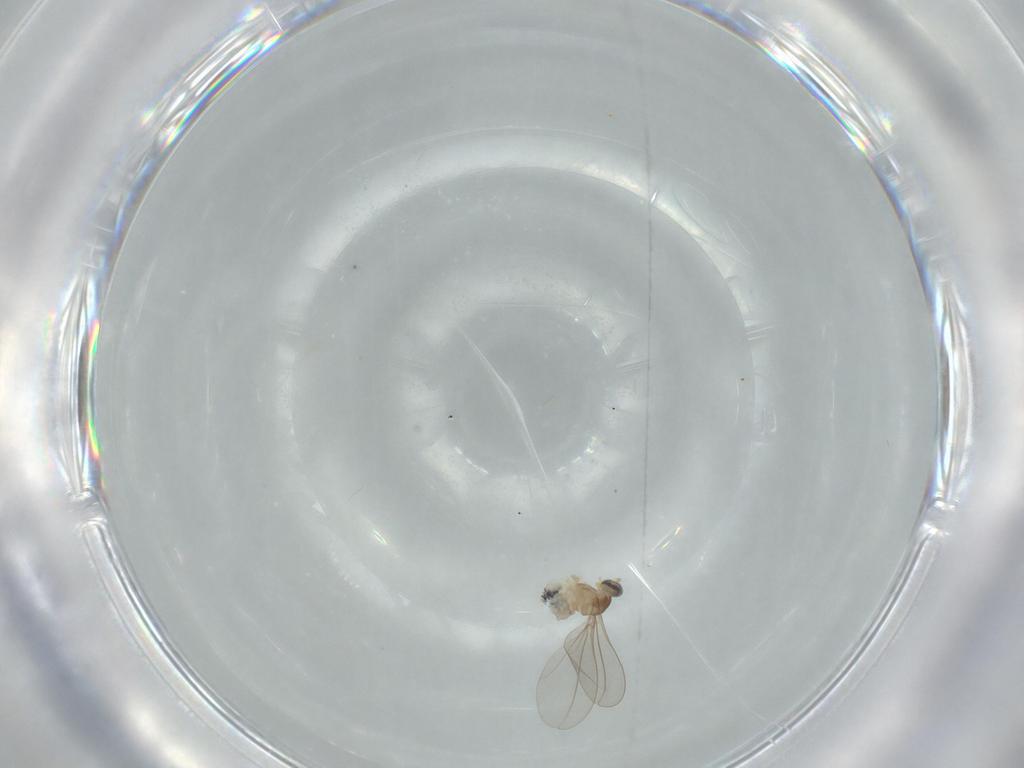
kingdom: Animalia
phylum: Arthropoda
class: Insecta
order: Diptera
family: Cecidomyiidae
